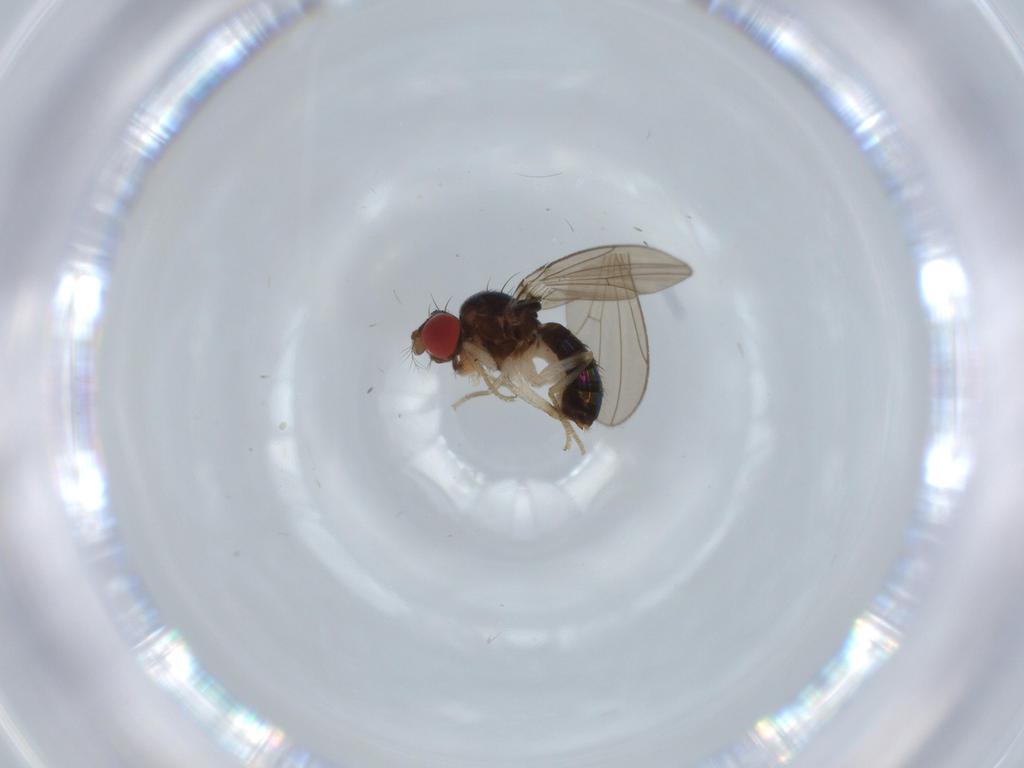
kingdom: Animalia
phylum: Arthropoda
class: Insecta
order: Diptera
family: Drosophilidae
